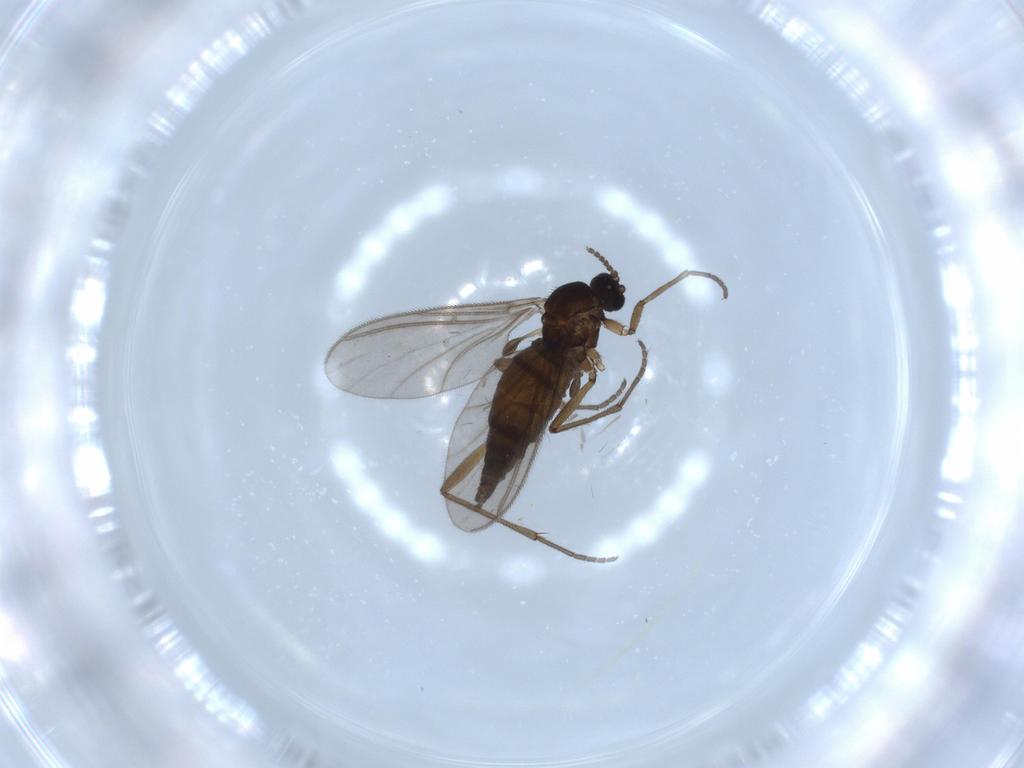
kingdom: Animalia
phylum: Arthropoda
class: Insecta
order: Diptera
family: Sciaridae
